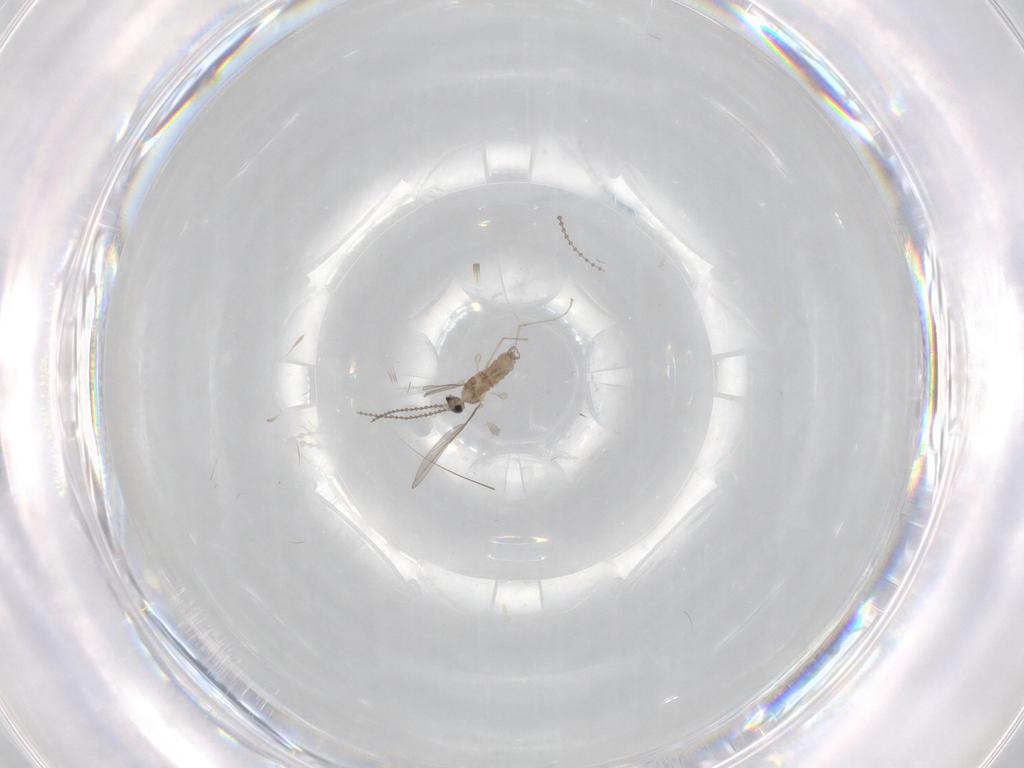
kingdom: Animalia
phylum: Arthropoda
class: Insecta
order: Diptera
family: Cecidomyiidae
